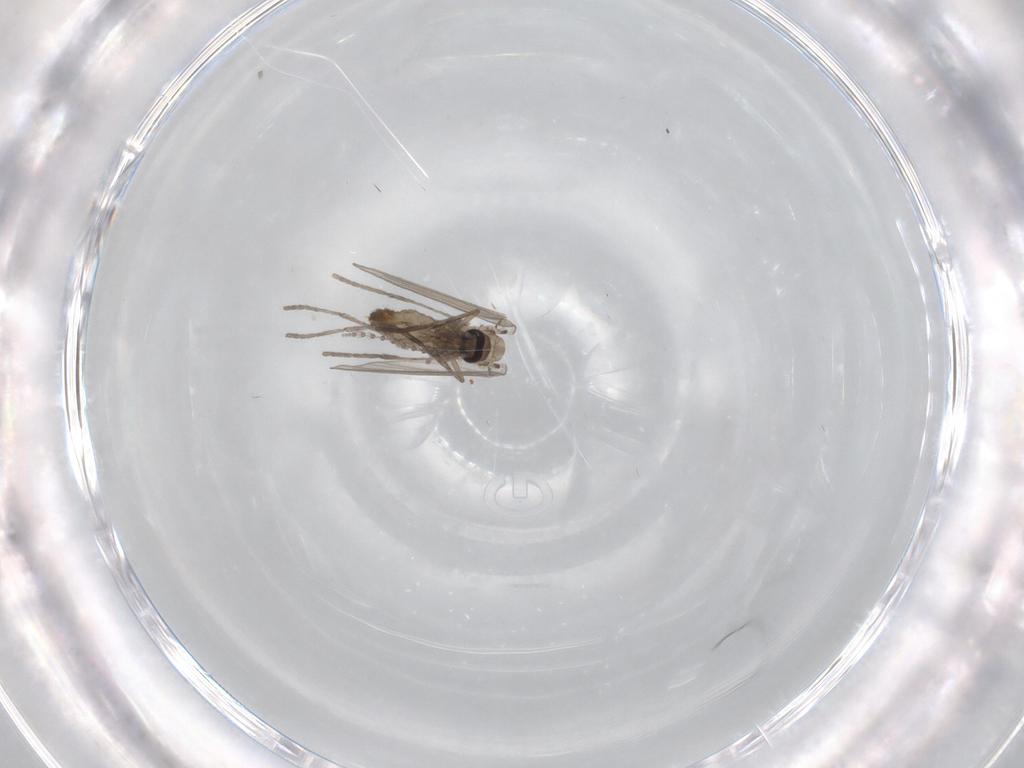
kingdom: Animalia
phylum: Arthropoda
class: Insecta
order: Diptera
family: Psychodidae
